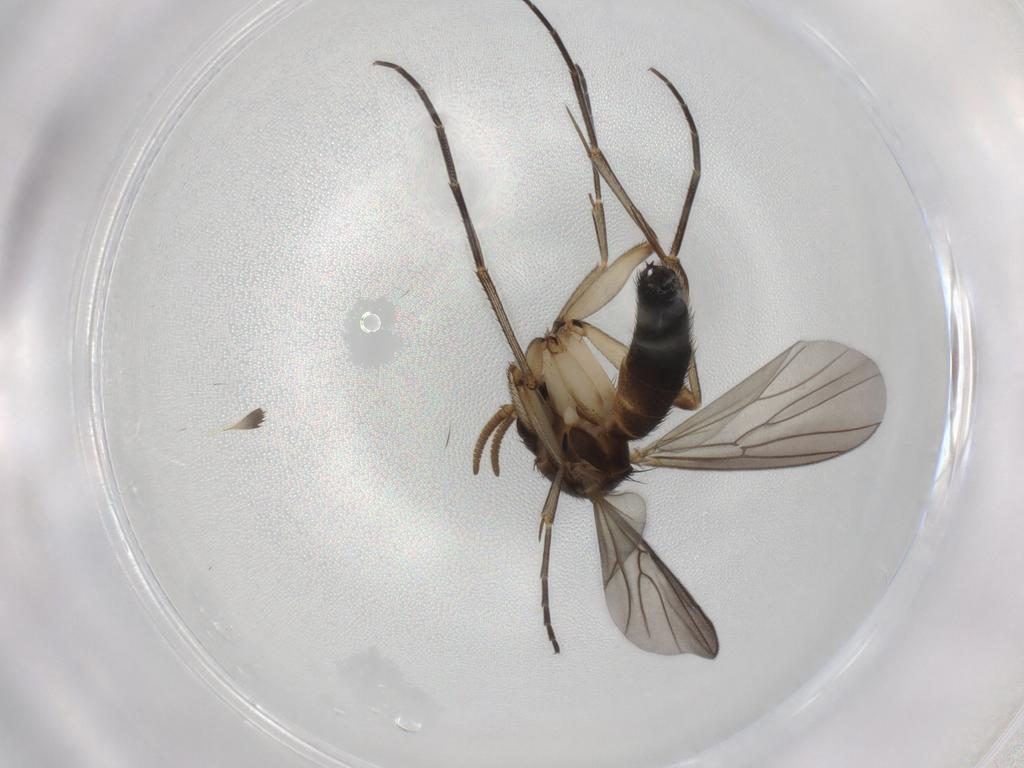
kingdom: Animalia
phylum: Arthropoda
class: Insecta
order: Diptera
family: Mycetophilidae
